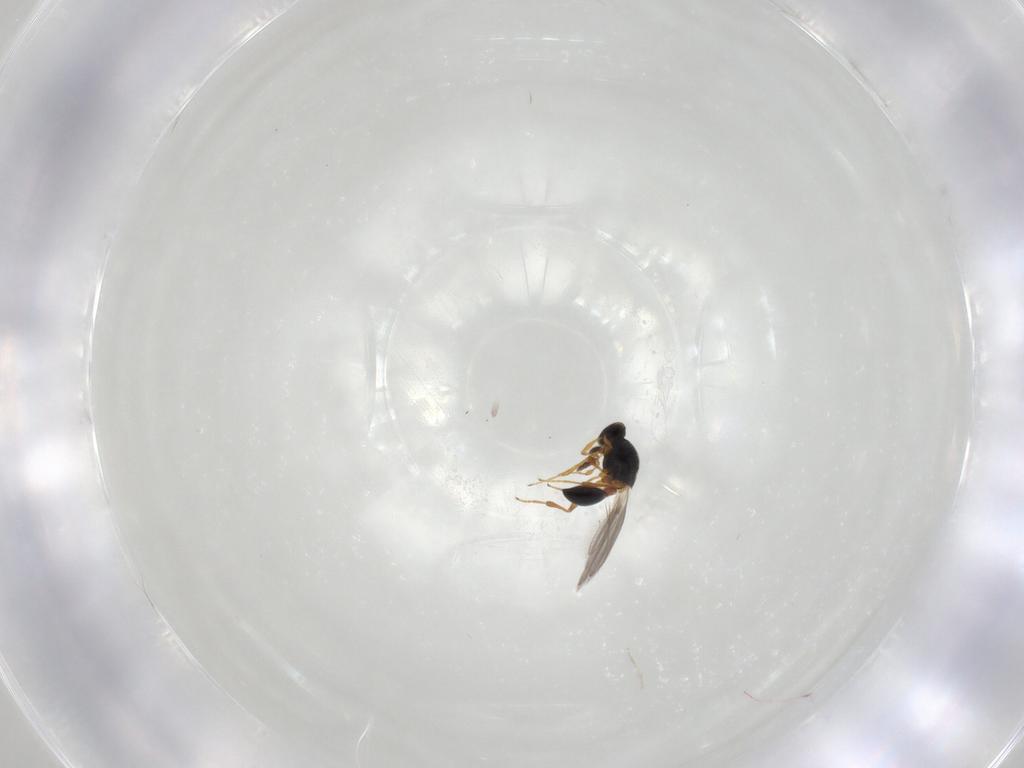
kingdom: Animalia
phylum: Arthropoda
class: Insecta
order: Hymenoptera
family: Platygastridae
